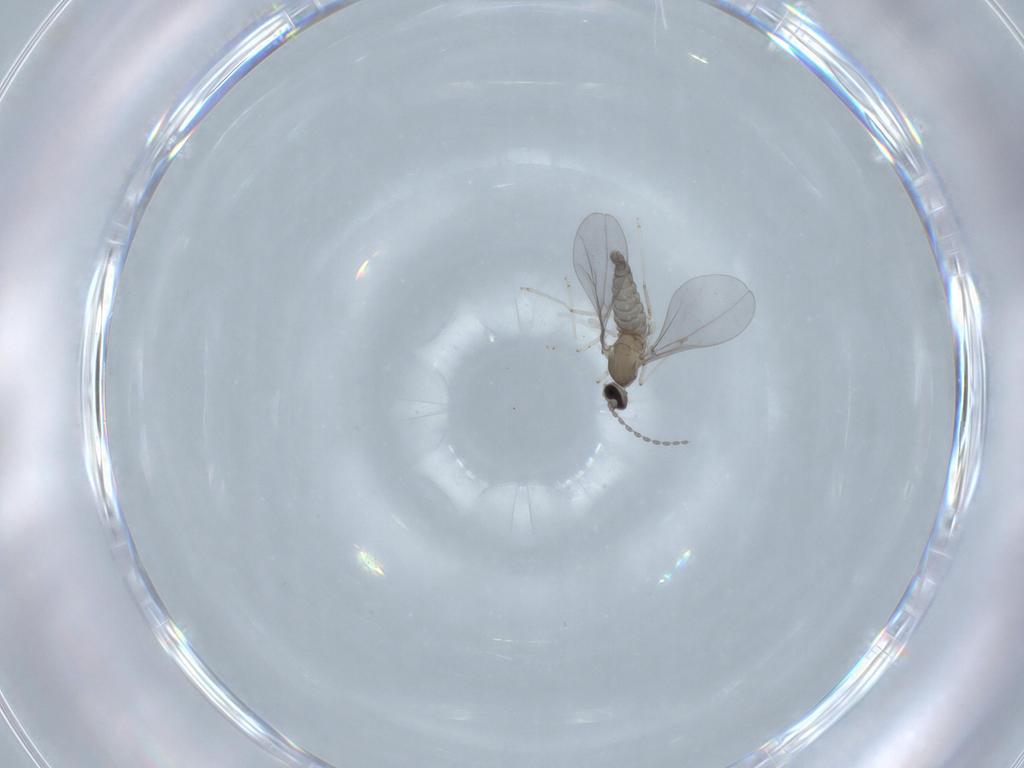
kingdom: Animalia
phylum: Arthropoda
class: Insecta
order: Diptera
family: Cecidomyiidae
